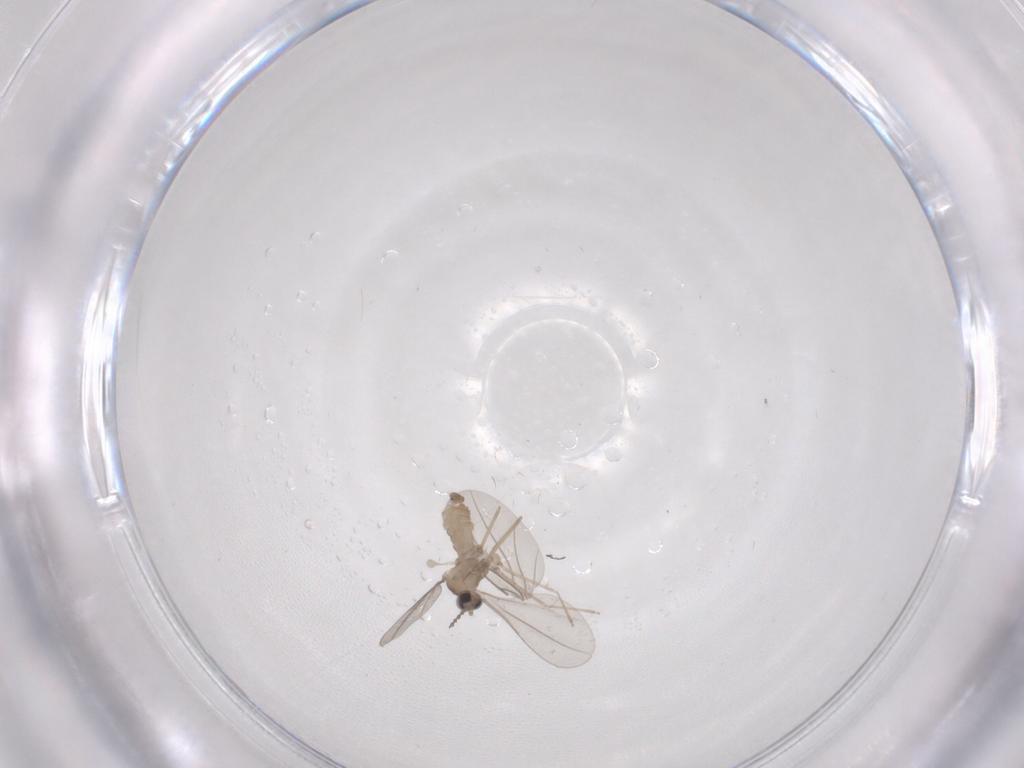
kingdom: Animalia
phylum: Arthropoda
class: Insecta
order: Diptera
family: Cecidomyiidae
